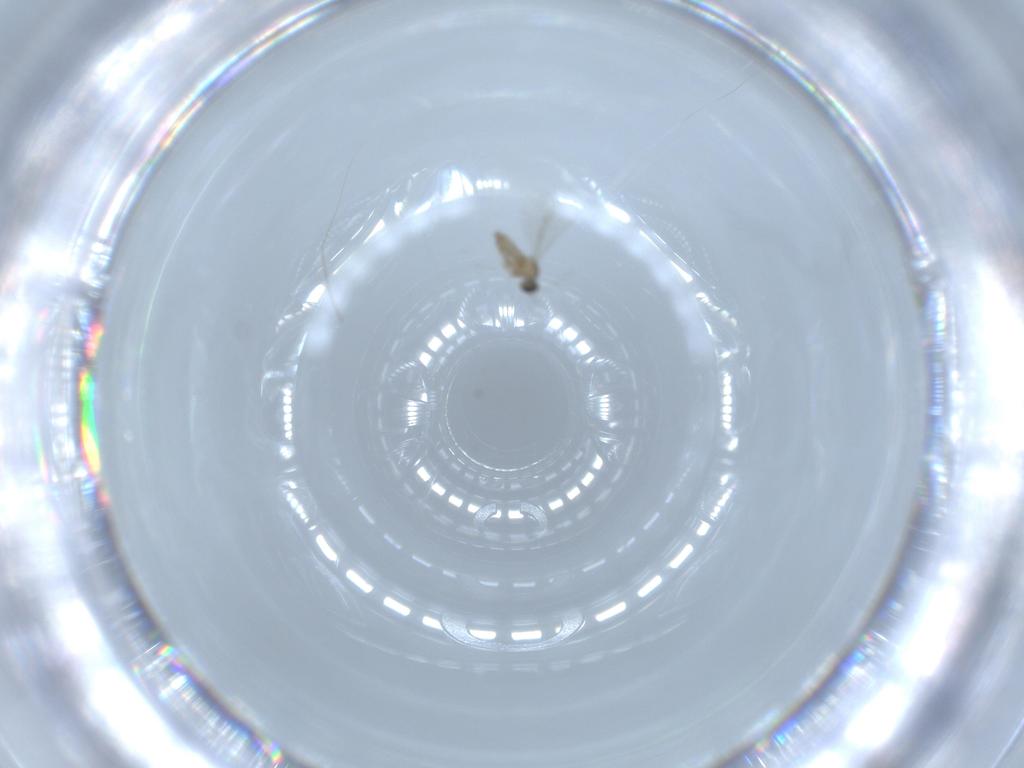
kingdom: Animalia
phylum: Arthropoda
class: Insecta
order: Diptera
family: Cecidomyiidae
